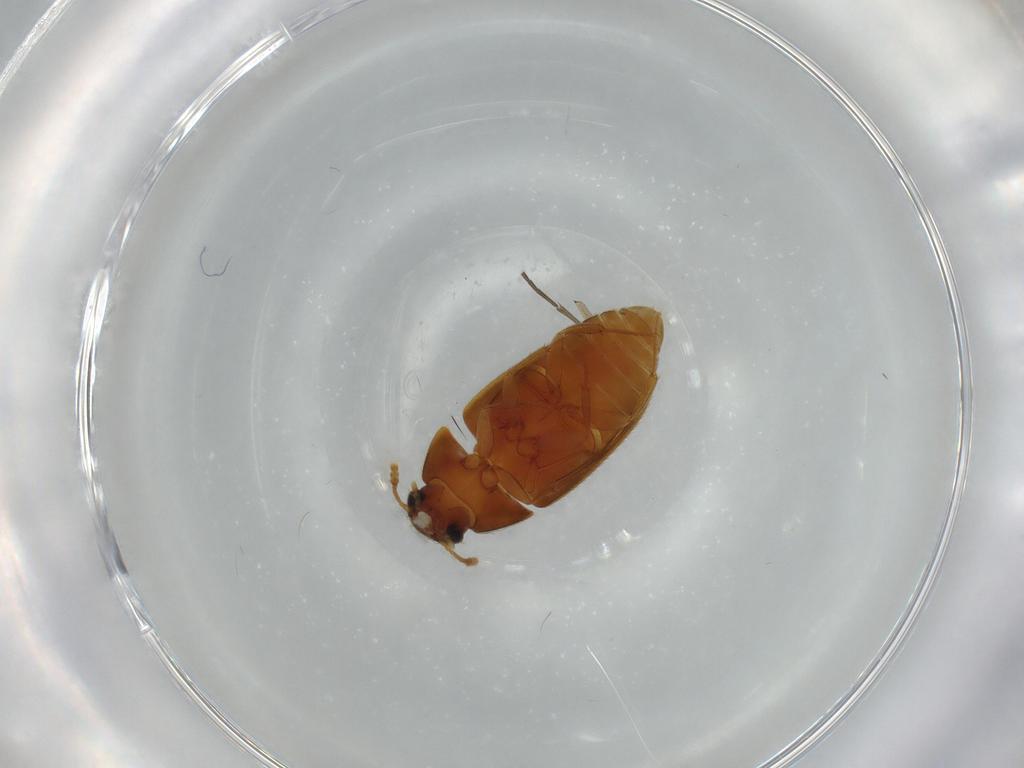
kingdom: Animalia
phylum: Arthropoda
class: Insecta
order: Coleoptera
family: Mycetophagidae
